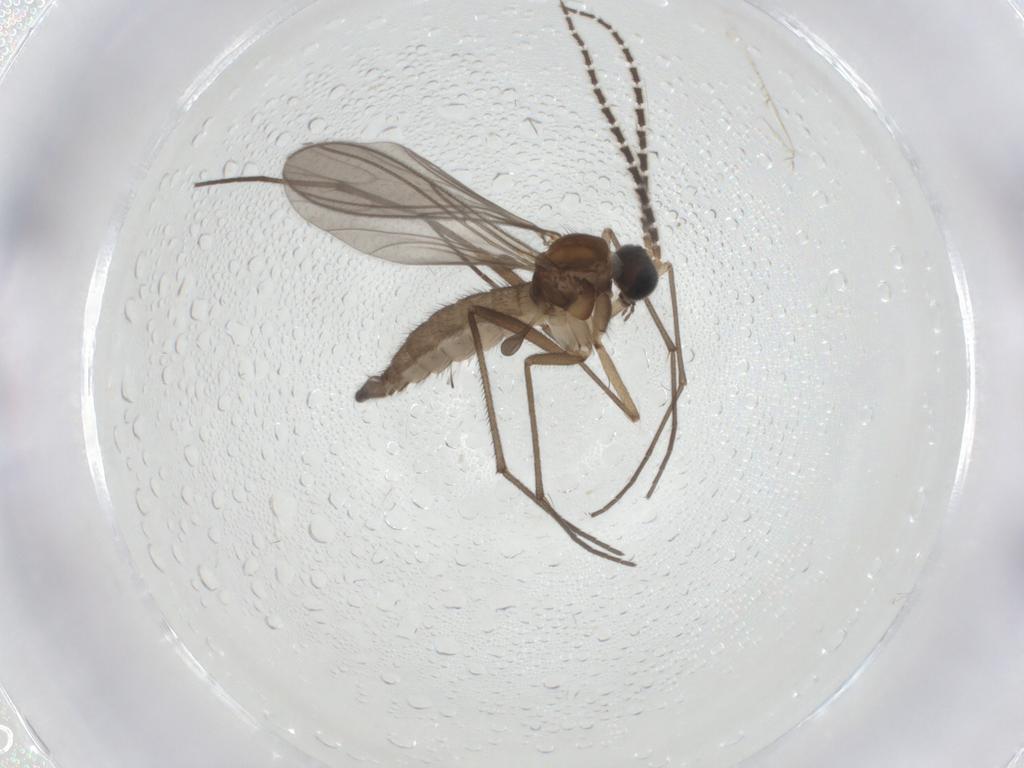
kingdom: Animalia
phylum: Arthropoda
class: Insecta
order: Diptera
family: Sciaridae
